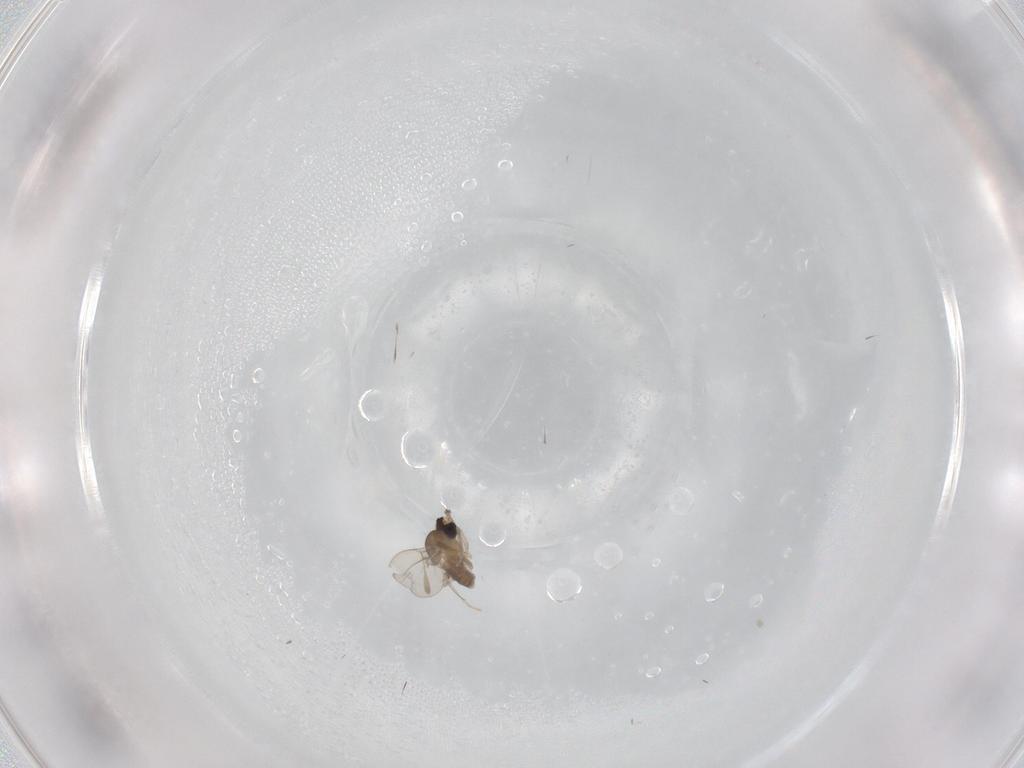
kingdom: Animalia
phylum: Arthropoda
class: Insecta
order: Diptera
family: Cecidomyiidae
